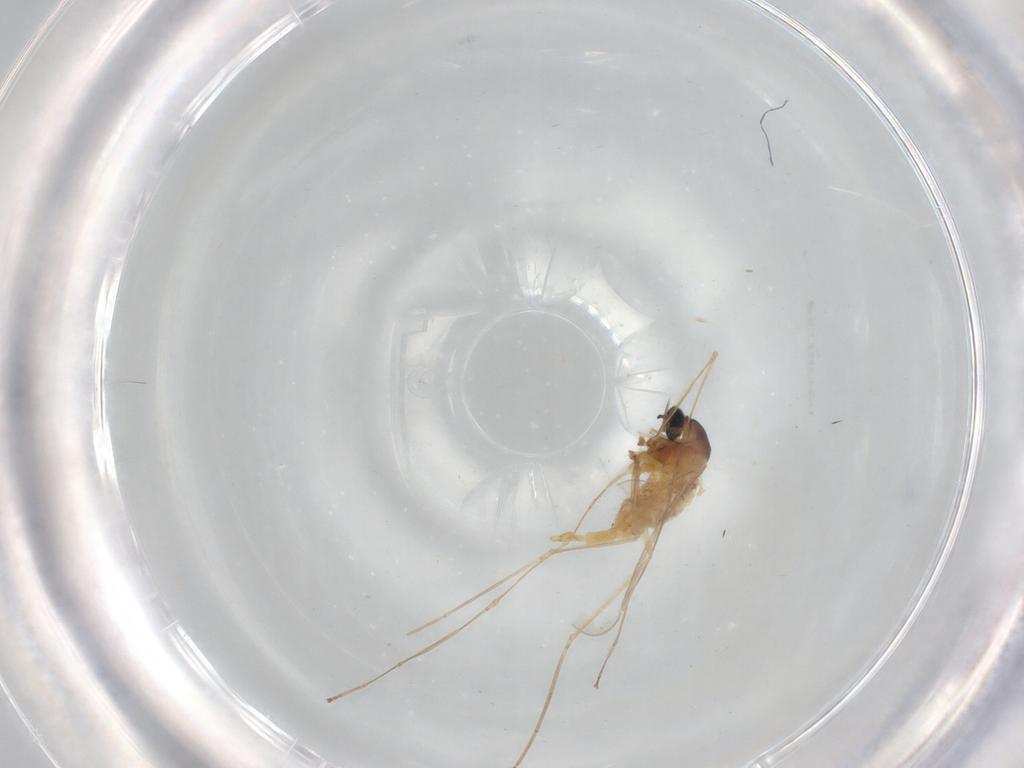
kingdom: Animalia
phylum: Arthropoda
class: Insecta
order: Diptera
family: Cecidomyiidae
